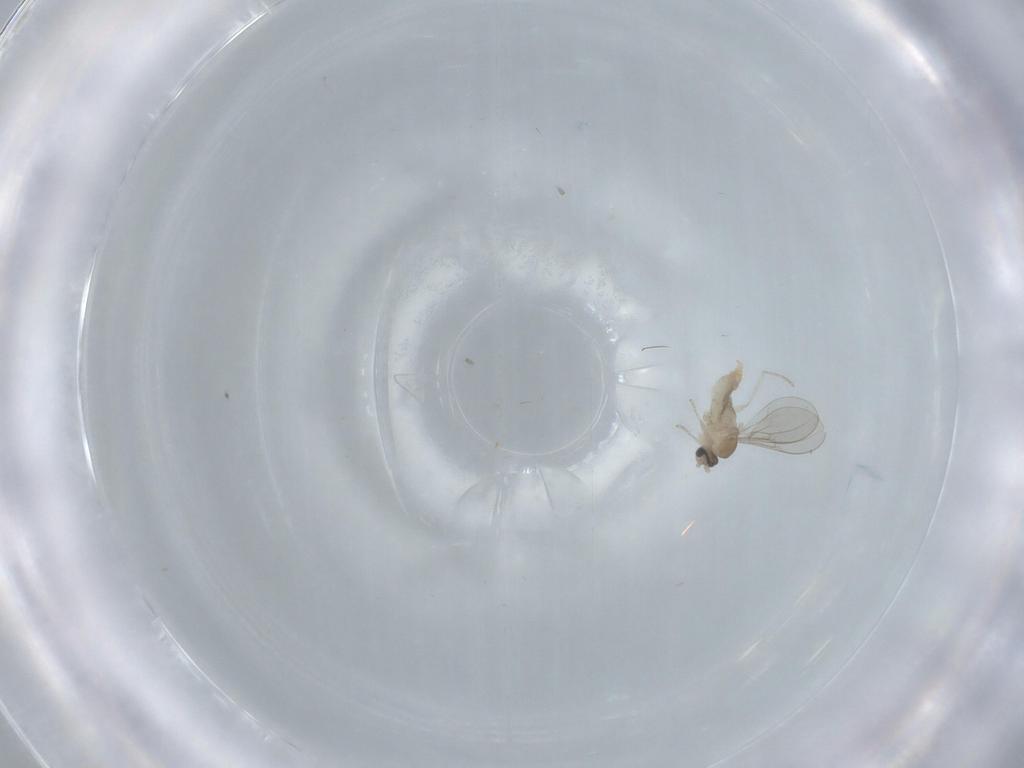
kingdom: Animalia
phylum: Arthropoda
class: Insecta
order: Diptera
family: Cecidomyiidae
